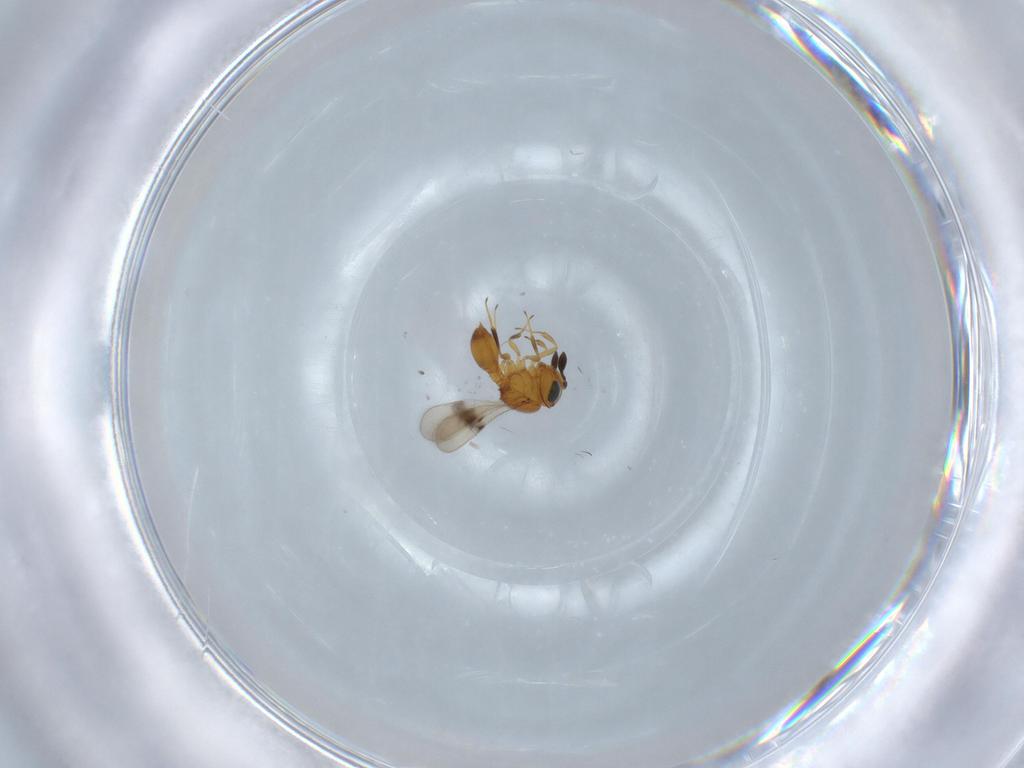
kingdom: Animalia
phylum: Arthropoda
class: Insecta
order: Hymenoptera
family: Scelionidae
